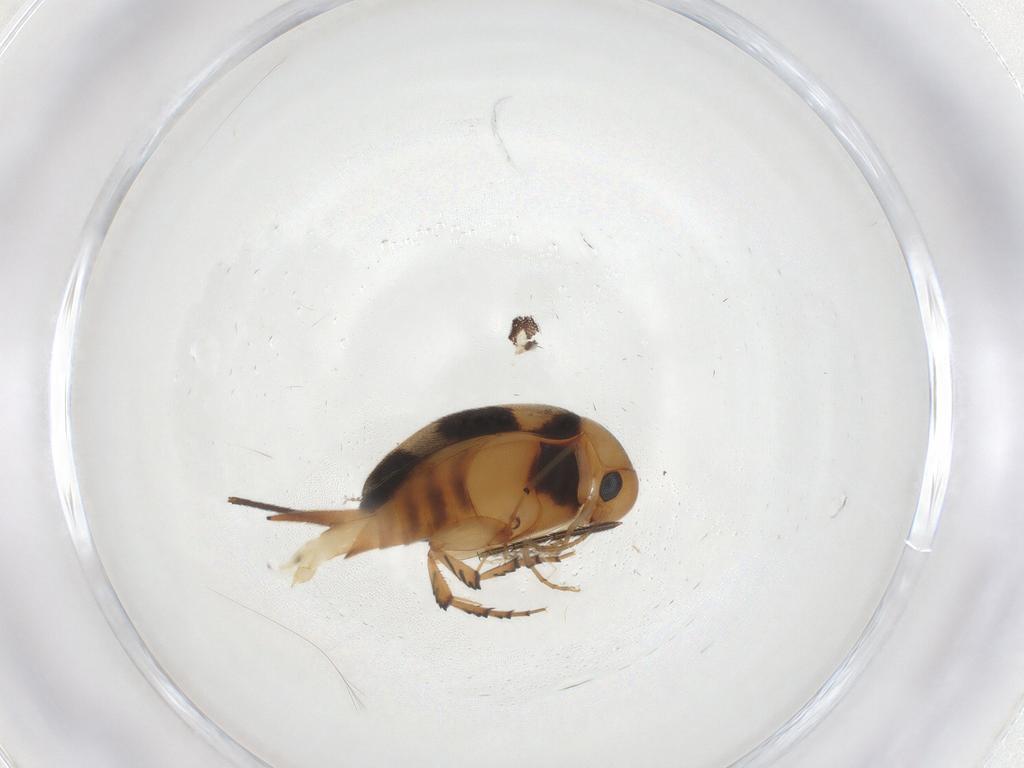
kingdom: Animalia
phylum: Arthropoda
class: Insecta
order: Coleoptera
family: Mordellidae
